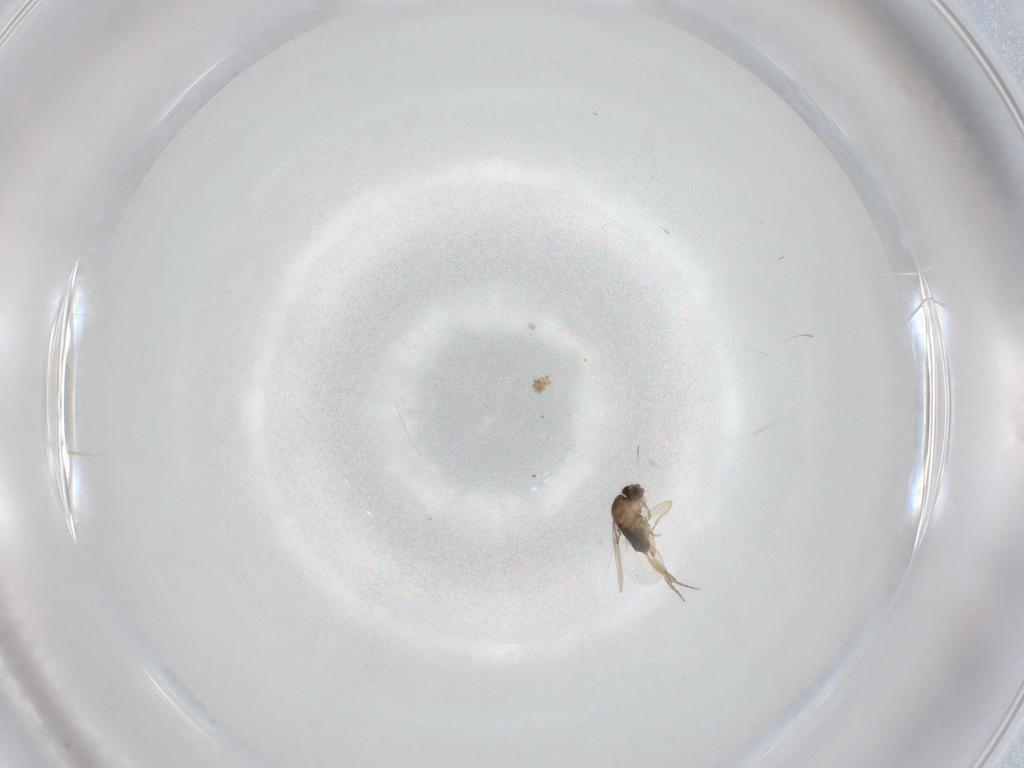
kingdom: Animalia
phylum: Arthropoda
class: Insecta
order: Diptera
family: Phoridae
